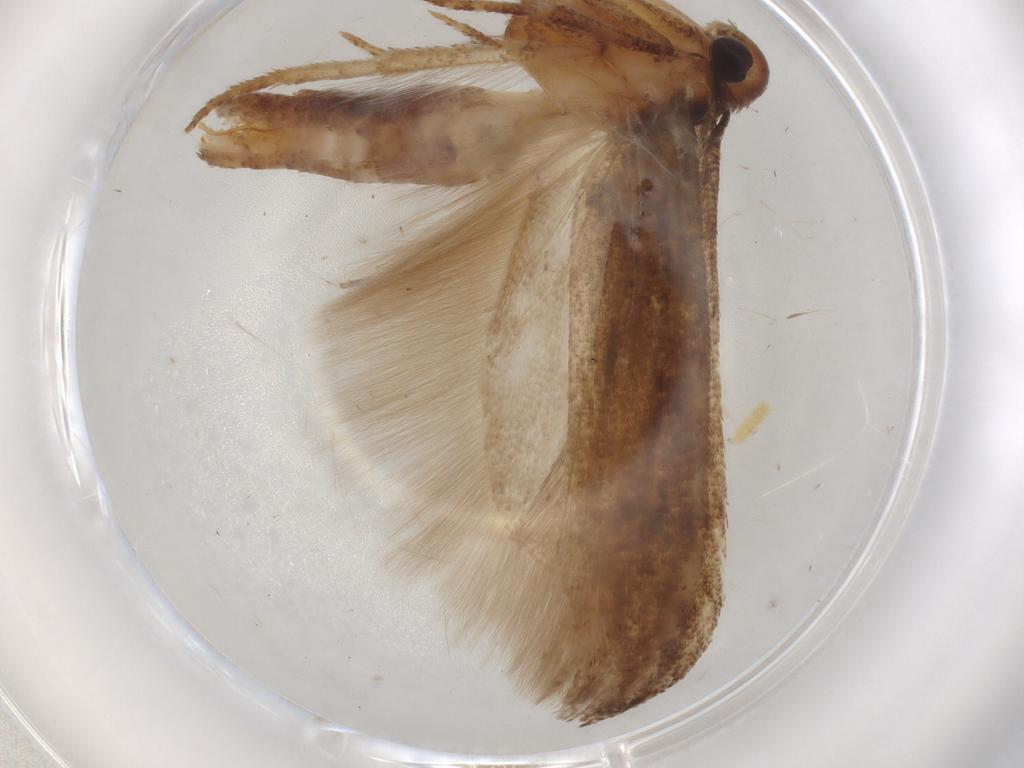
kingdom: Animalia
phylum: Arthropoda
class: Insecta
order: Lepidoptera
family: Gelechiidae
